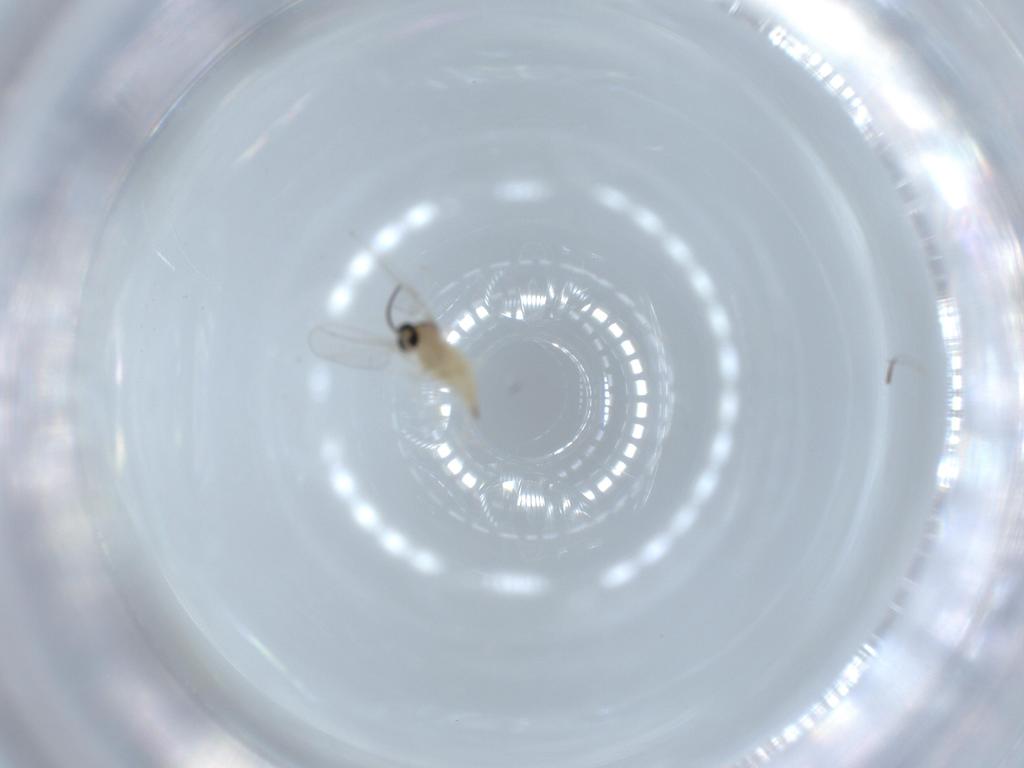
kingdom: Animalia
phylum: Arthropoda
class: Insecta
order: Diptera
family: Cecidomyiidae
